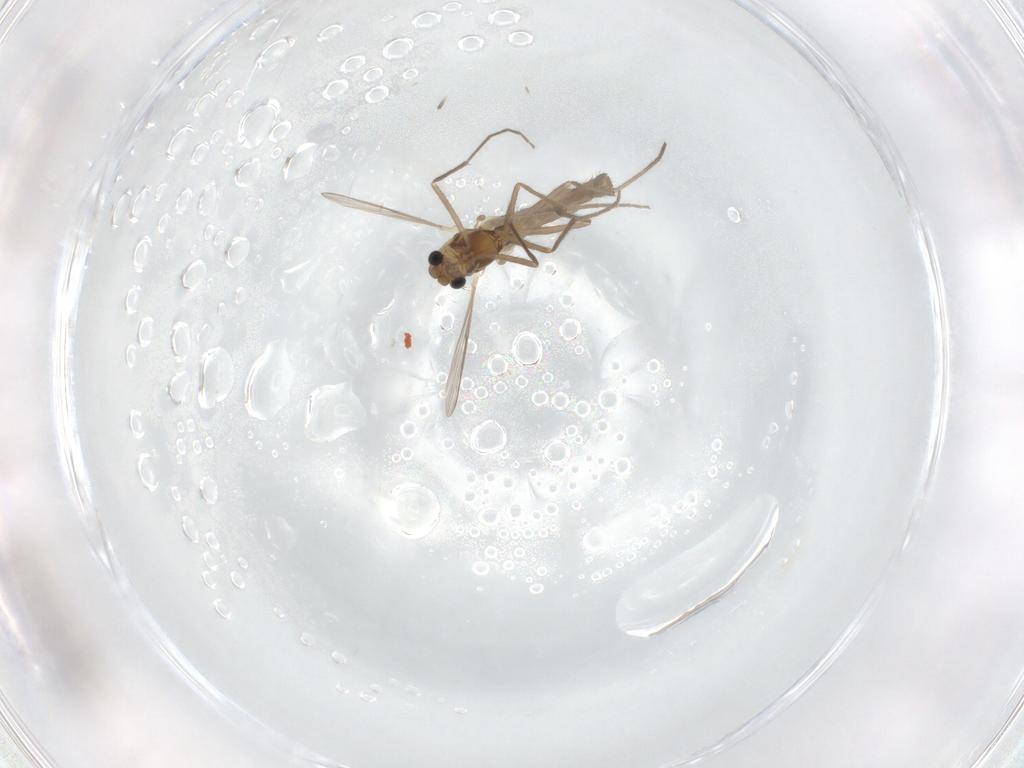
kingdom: Animalia
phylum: Arthropoda
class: Insecta
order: Diptera
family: Chironomidae
